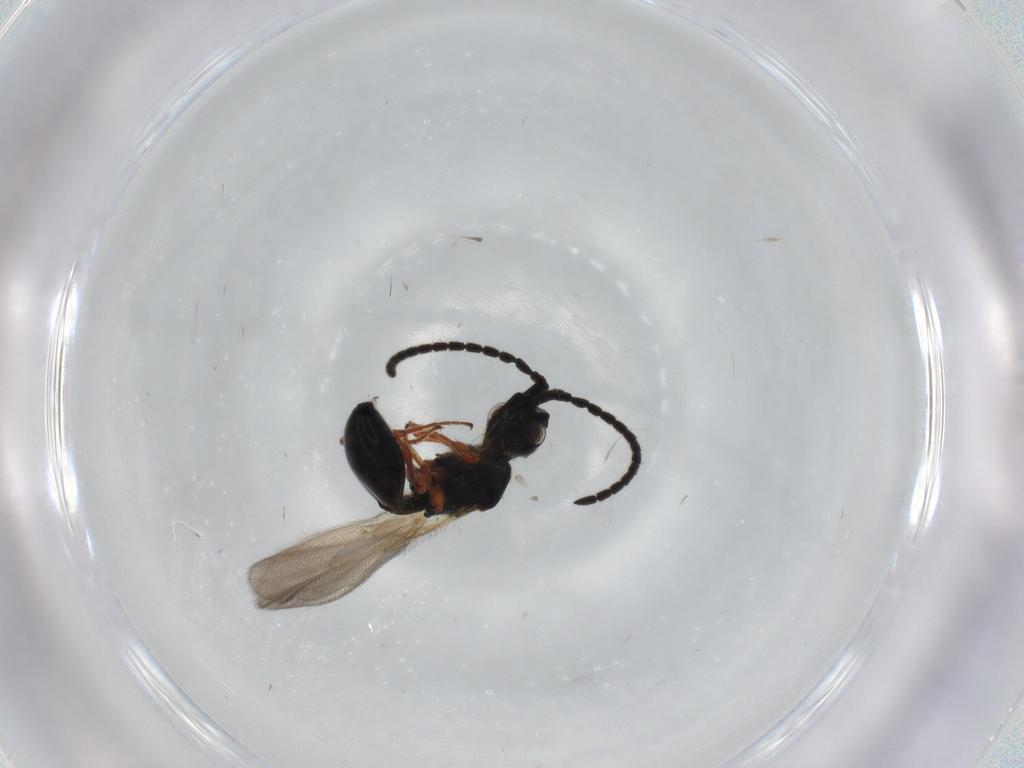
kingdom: Animalia
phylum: Arthropoda
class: Insecta
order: Hymenoptera
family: Diapriidae
